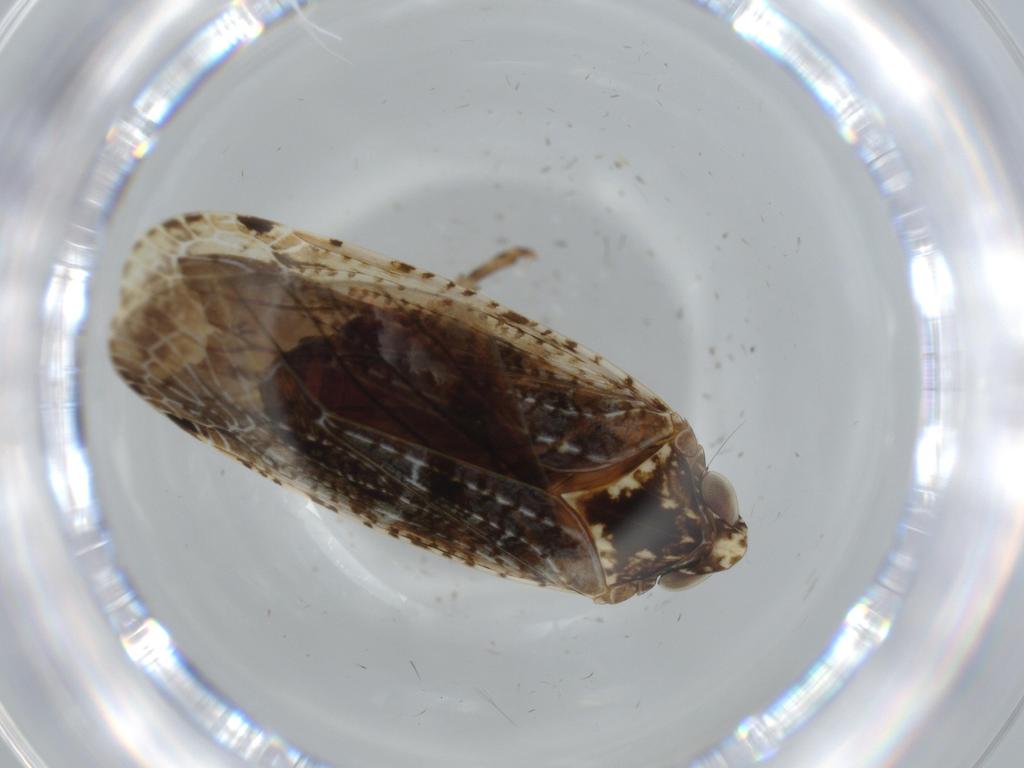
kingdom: Animalia
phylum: Arthropoda
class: Insecta
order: Hemiptera
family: Achilidae
